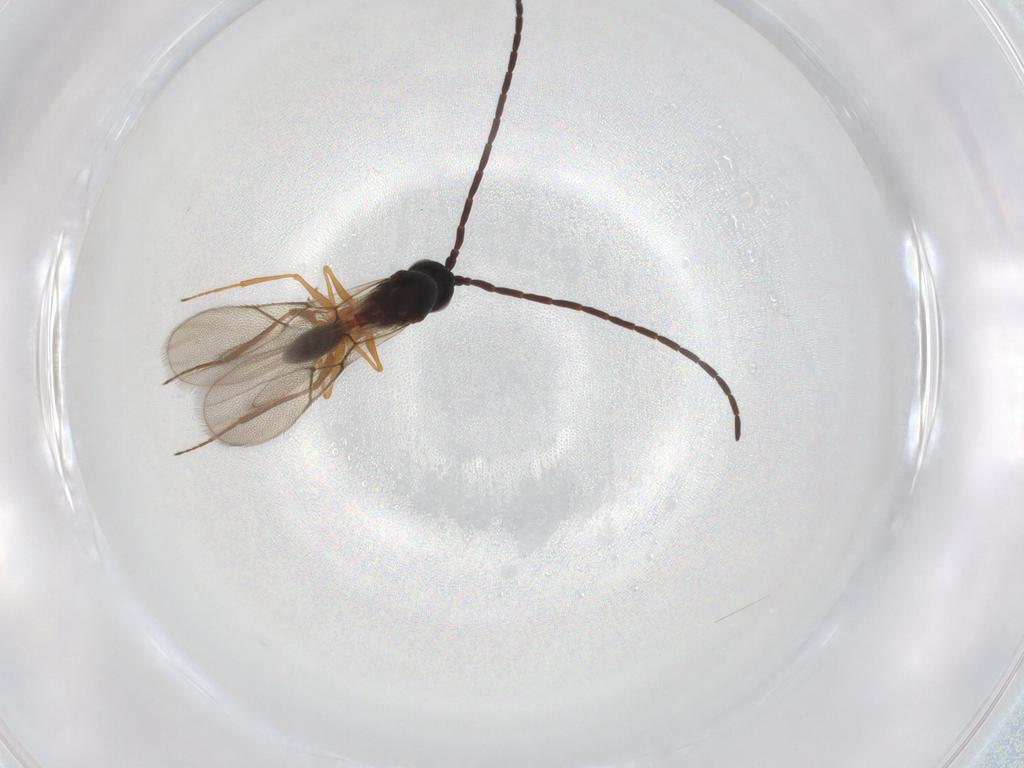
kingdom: Animalia
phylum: Arthropoda
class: Insecta
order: Hymenoptera
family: Figitidae
